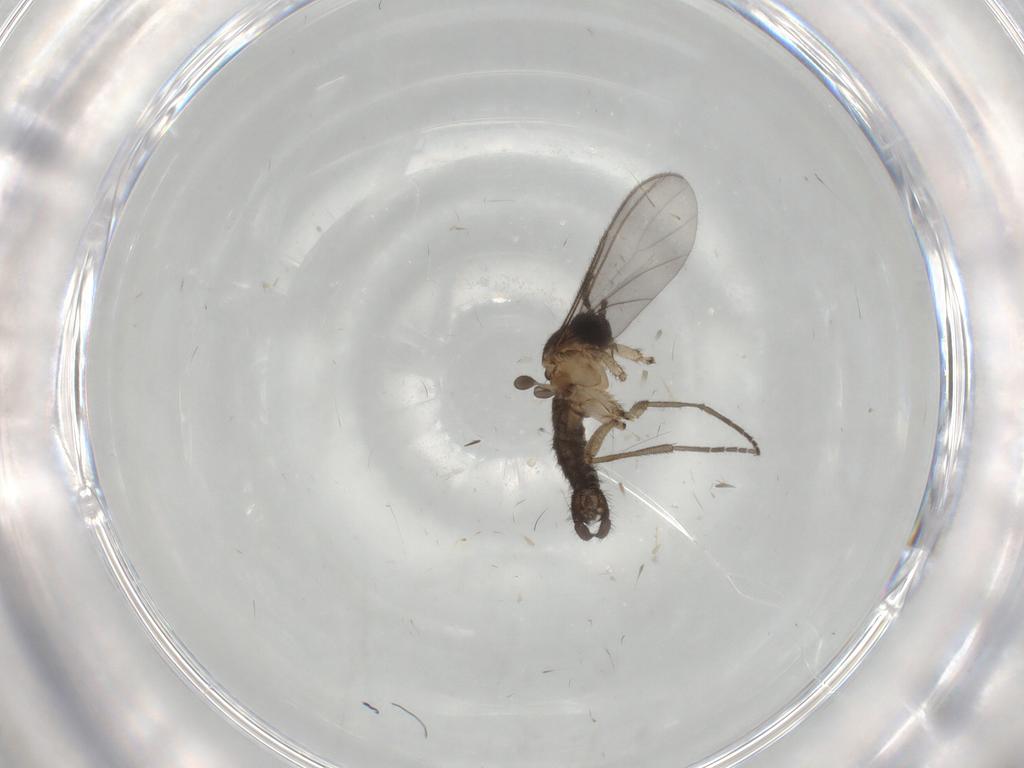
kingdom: Animalia
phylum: Arthropoda
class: Insecta
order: Diptera
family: Sciaridae
